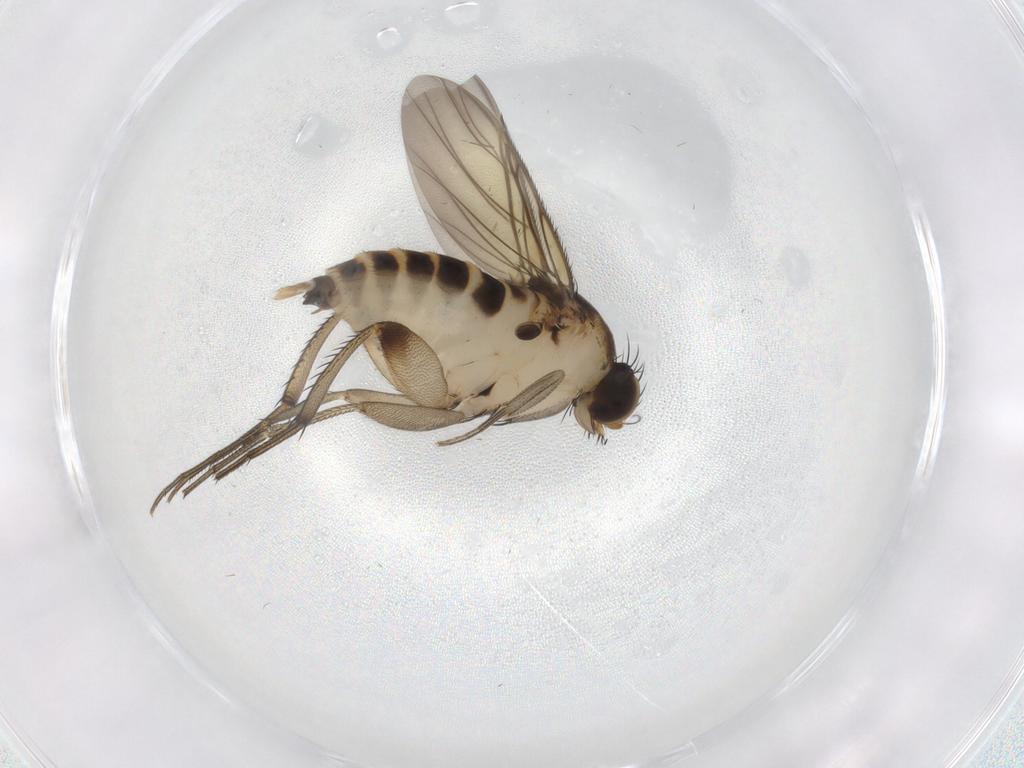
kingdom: Animalia
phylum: Arthropoda
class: Insecta
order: Diptera
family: Phoridae
